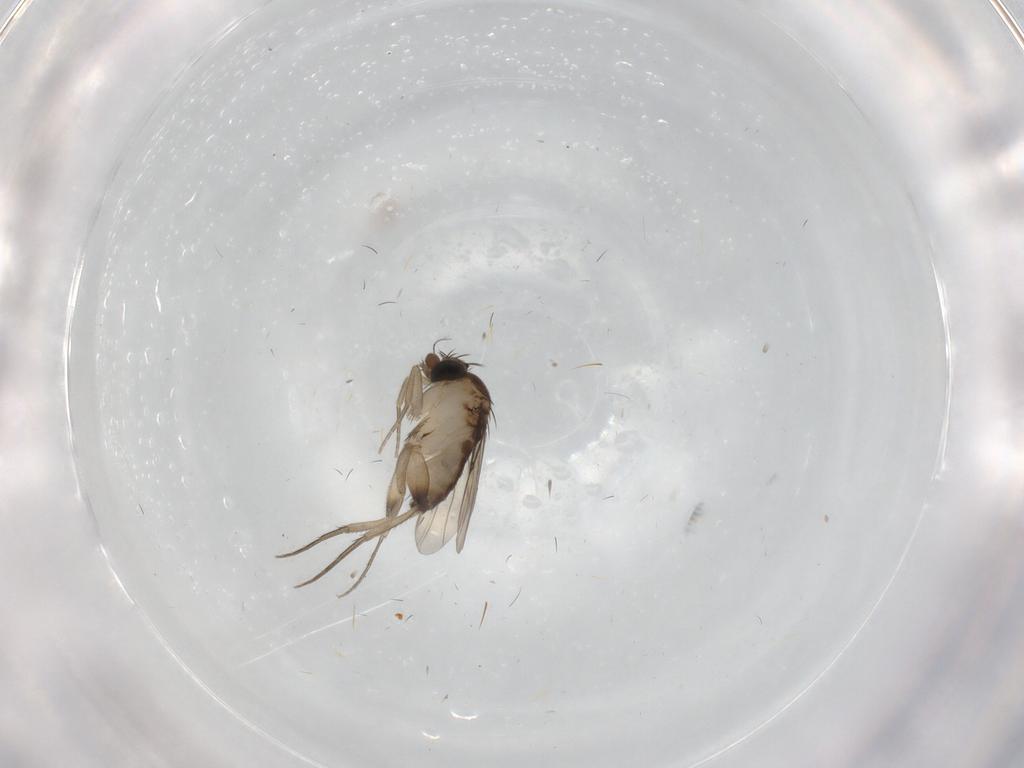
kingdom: Animalia
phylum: Arthropoda
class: Insecta
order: Diptera
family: Phoridae
